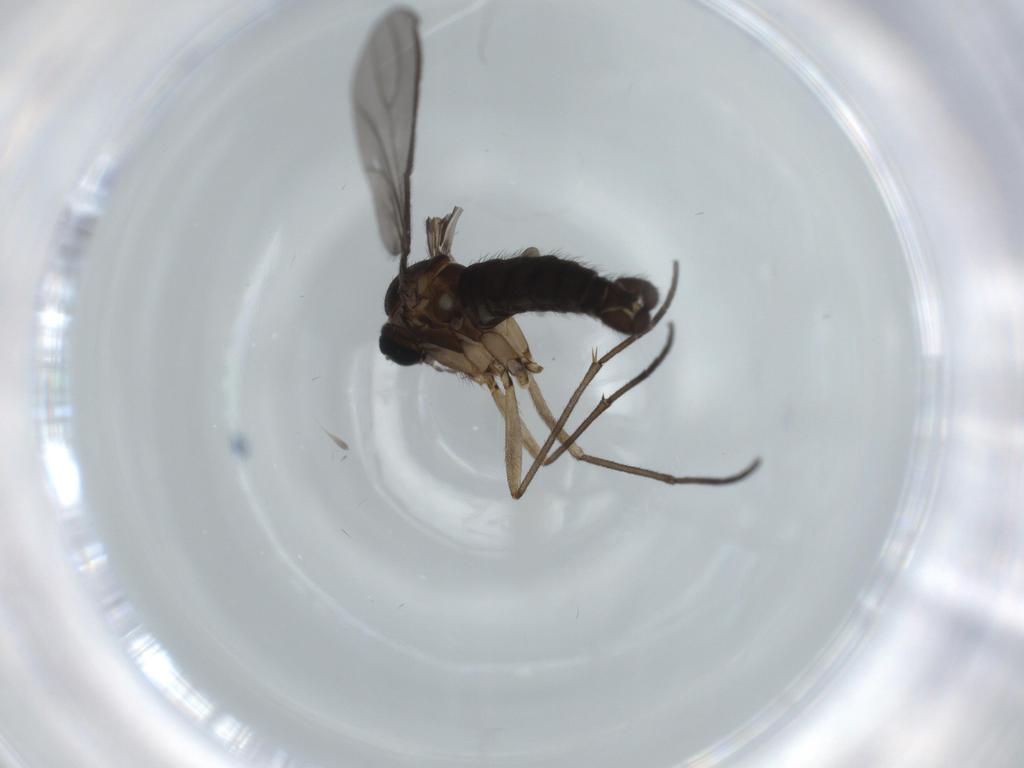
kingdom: Animalia
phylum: Arthropoda
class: Insecta
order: Diptera
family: Sciaridae
